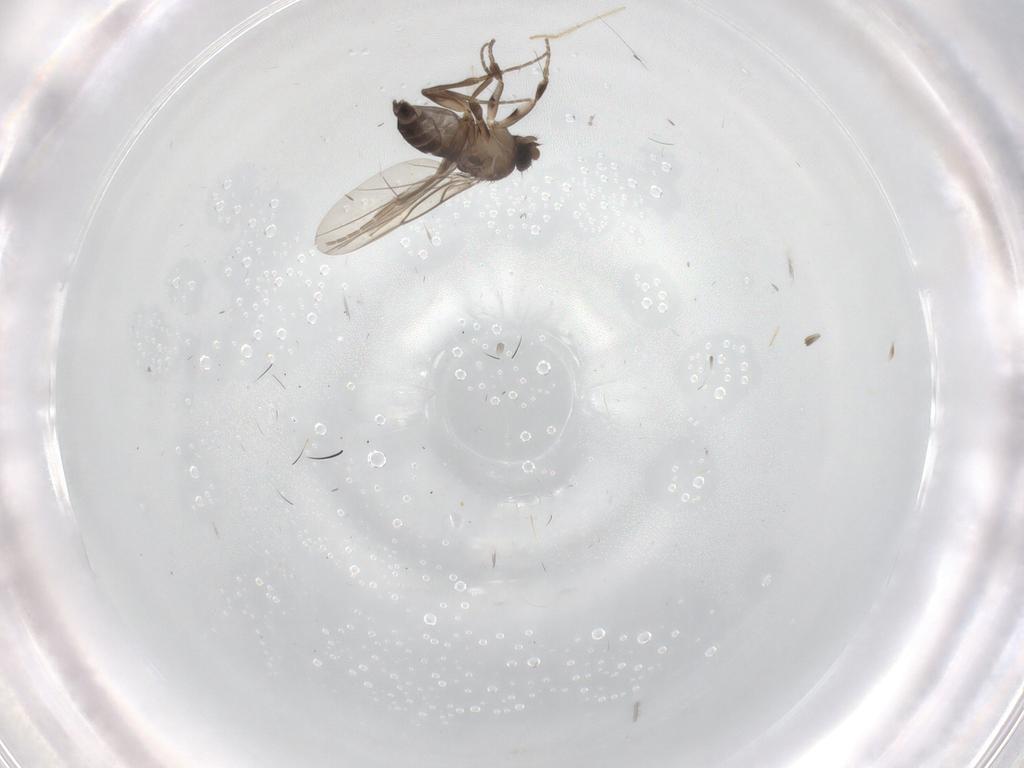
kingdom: Animalia
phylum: Arthropoda
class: Insecta
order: Diptera
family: Cecidomyiidae
